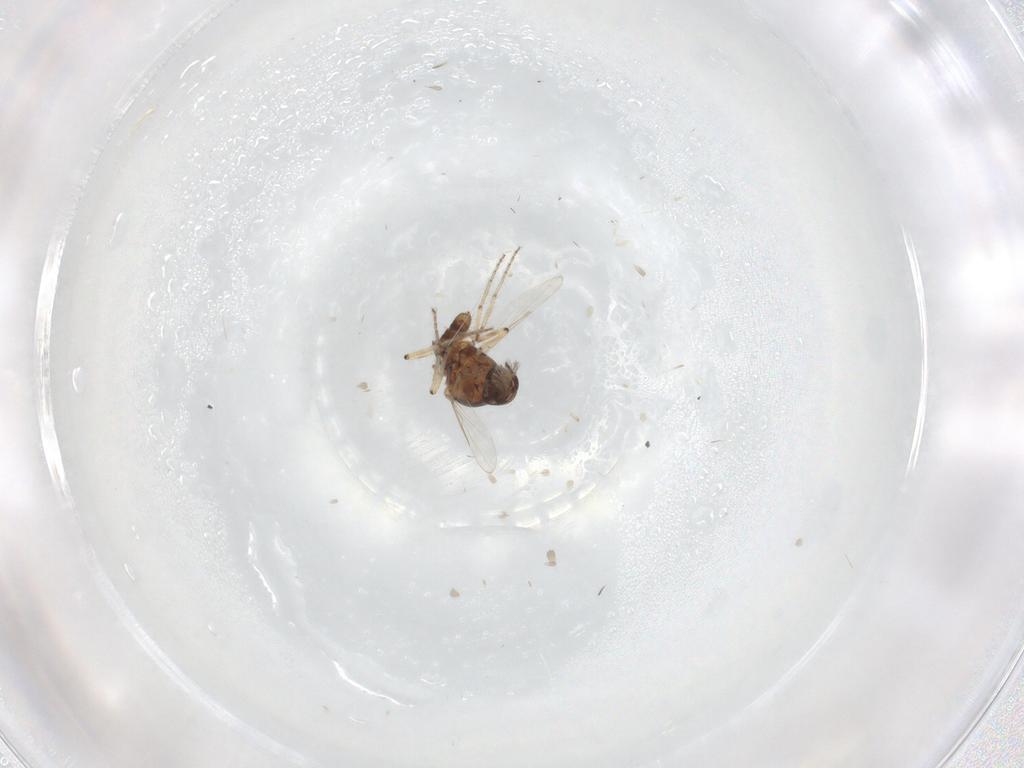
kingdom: Animalia
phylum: Arthropoda
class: Insecta
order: Diptera
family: Ceratopogonidae
